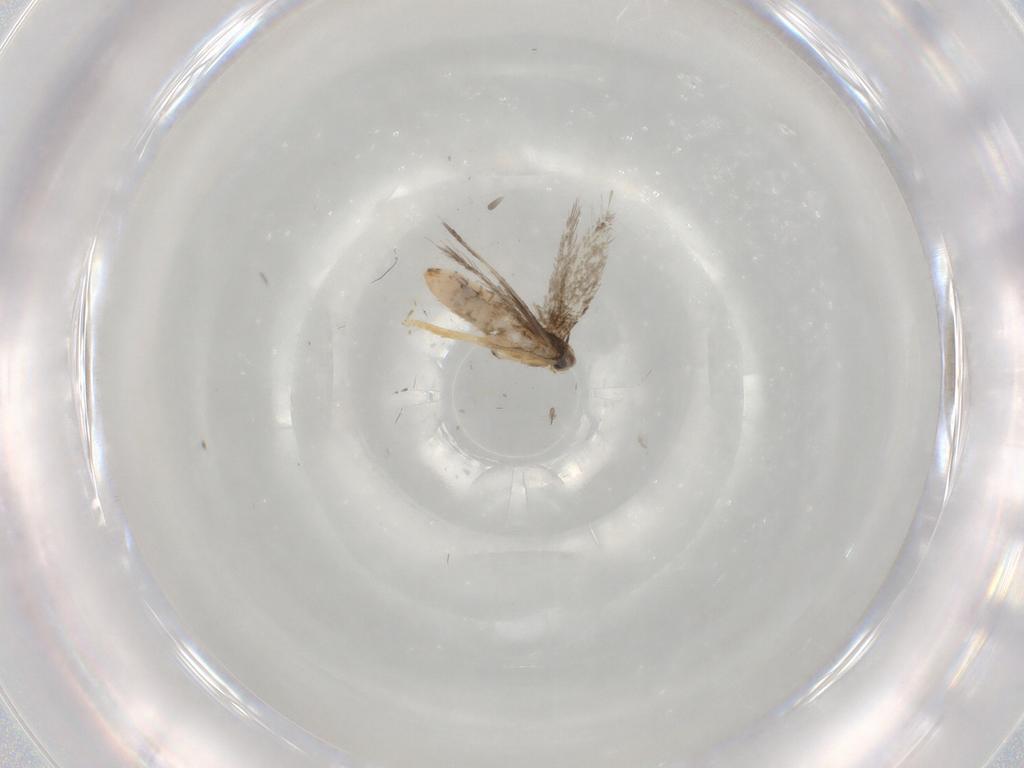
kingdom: Animalia
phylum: Arthropoda
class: Insecta
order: Lepidoptera
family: Nepticulidae
